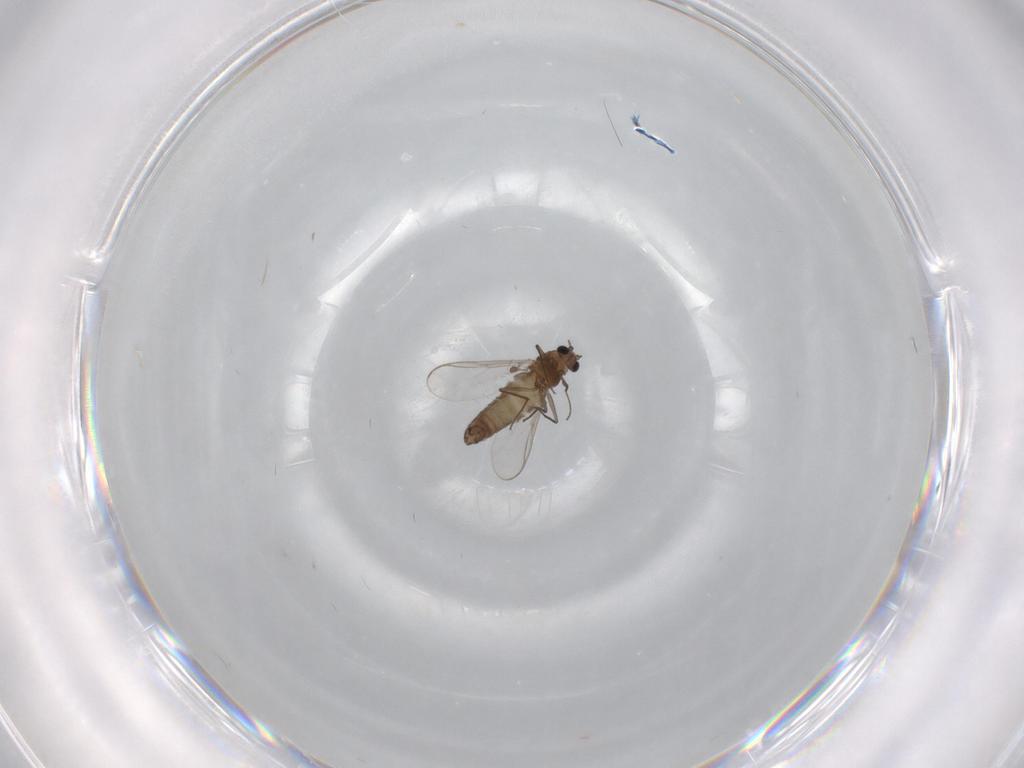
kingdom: Animalia
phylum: Arthropoda
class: Insecta
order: Diptera
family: Chironomidae
